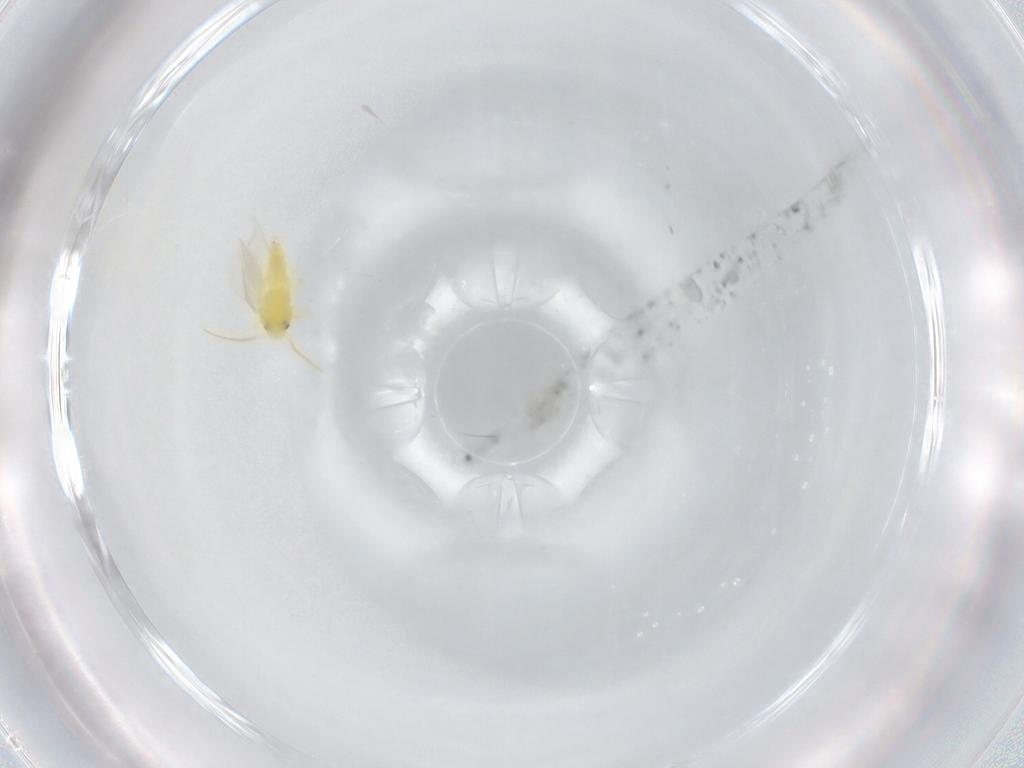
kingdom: Animalia
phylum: Arthropoda
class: Insecta
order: Hemiptera
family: Aleyrodidae
